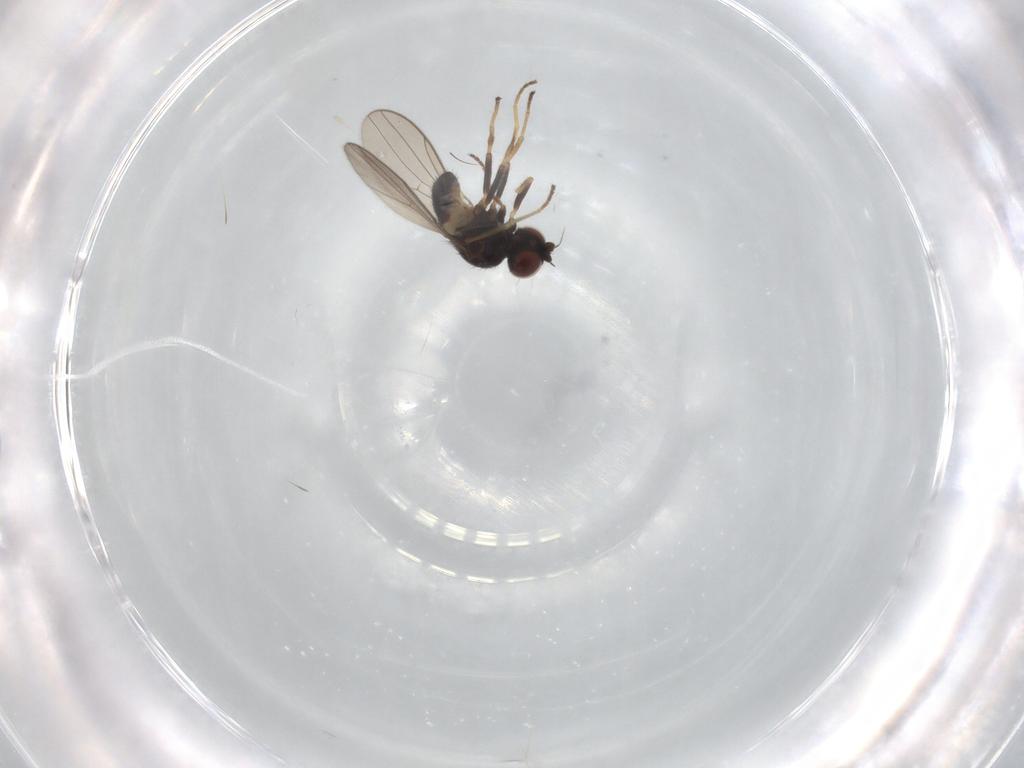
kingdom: Animalia
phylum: Arthropoda
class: Insecta
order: Diptera
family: Chloropidae
